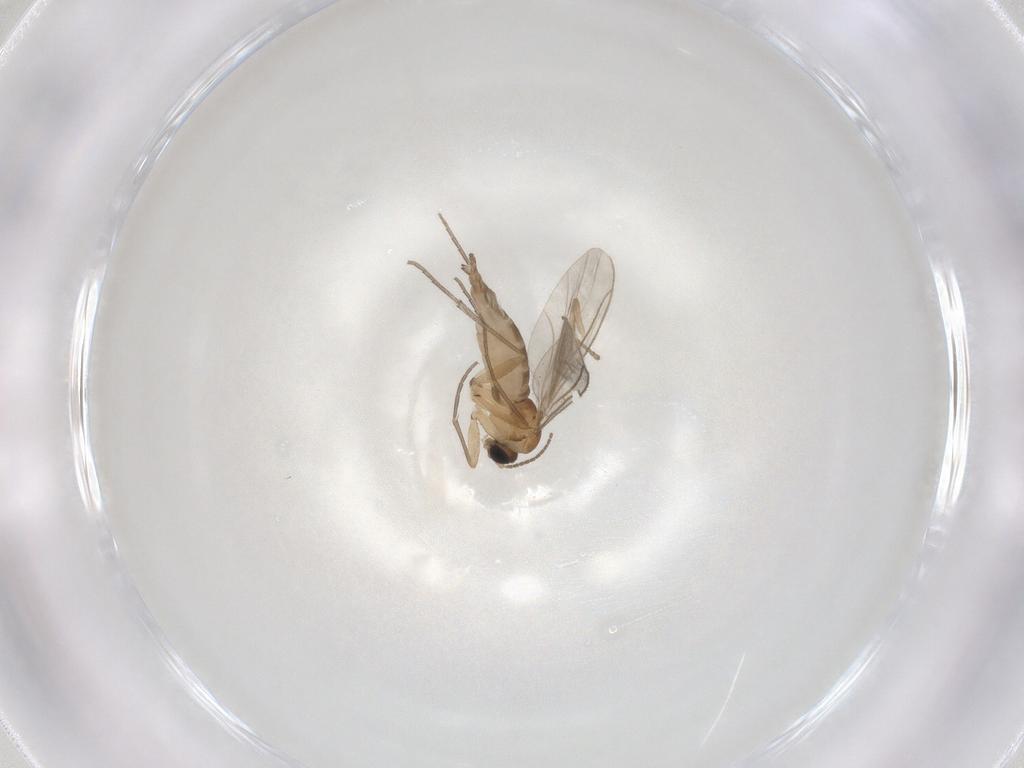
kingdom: Animalia
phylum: Arthropoda
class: Insecta
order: Diptera
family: Sciaridae
